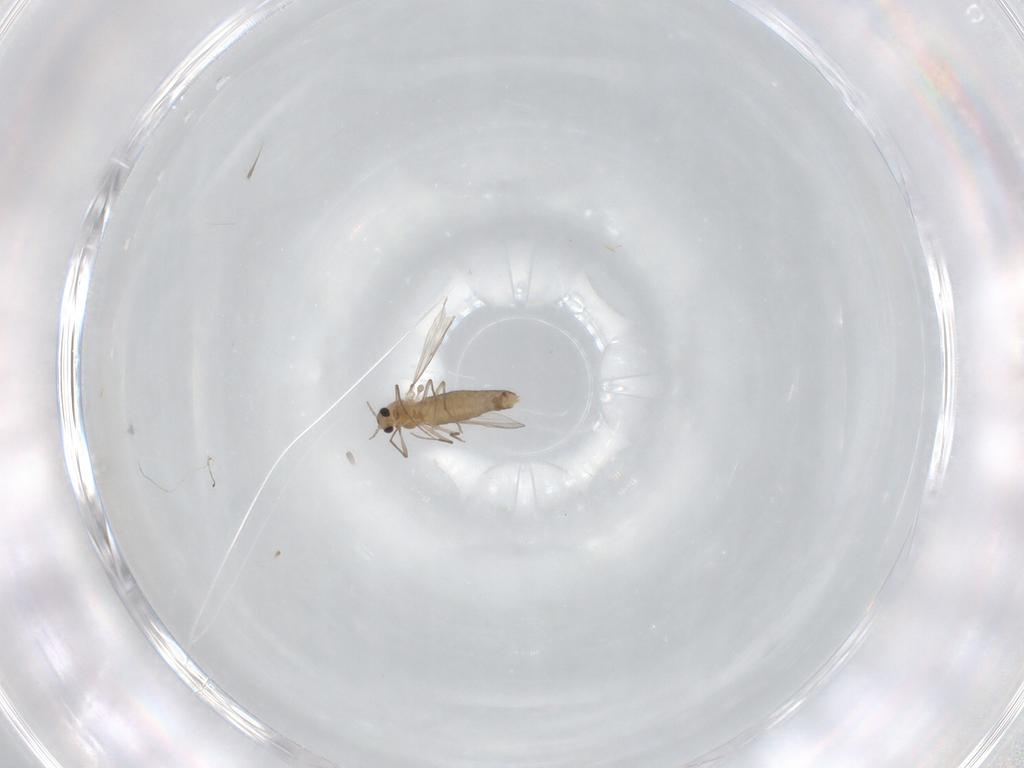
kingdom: Animalia
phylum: Arthropoda
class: Insecta
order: Diptera
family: Chironomidae
